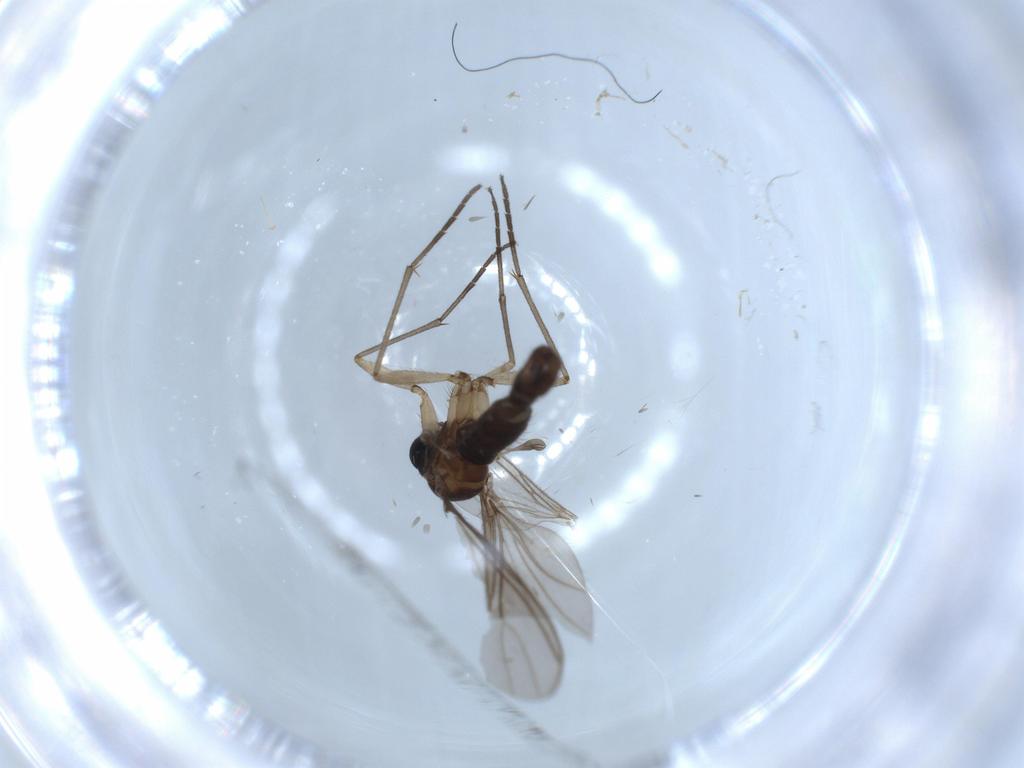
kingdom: Animalia
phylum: Arthropoda
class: Insecta
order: Diptera
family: Sciaridae
